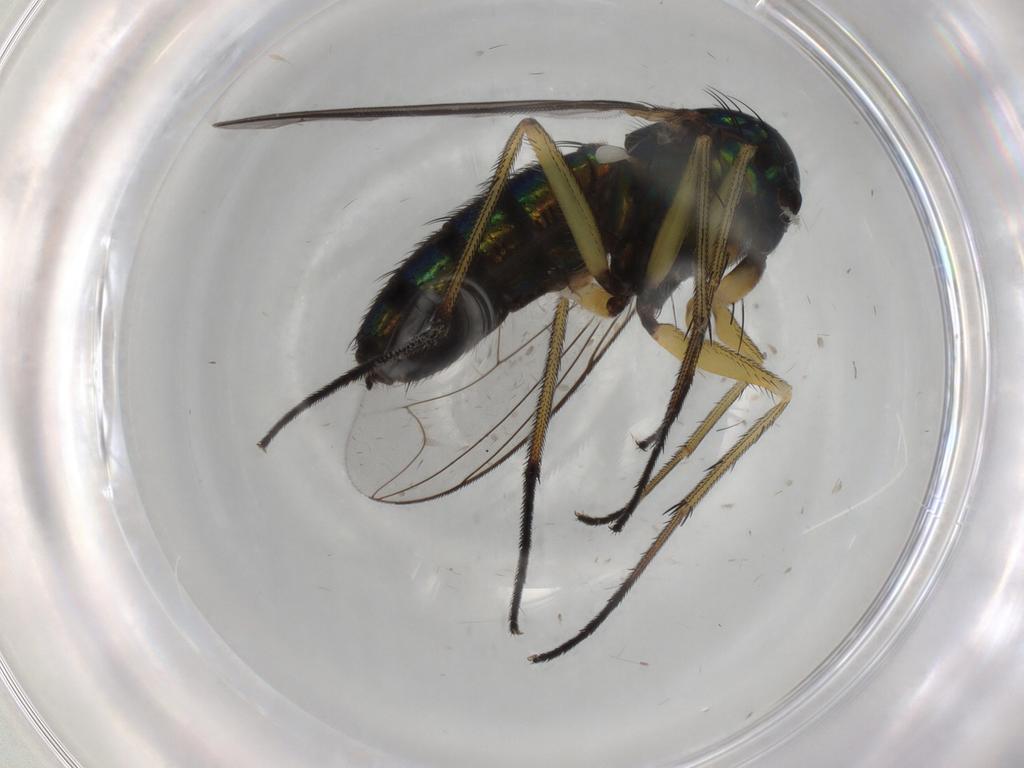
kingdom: Animalia
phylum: Arthropoda
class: Insecta
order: Diptera
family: Dolichopodidae
